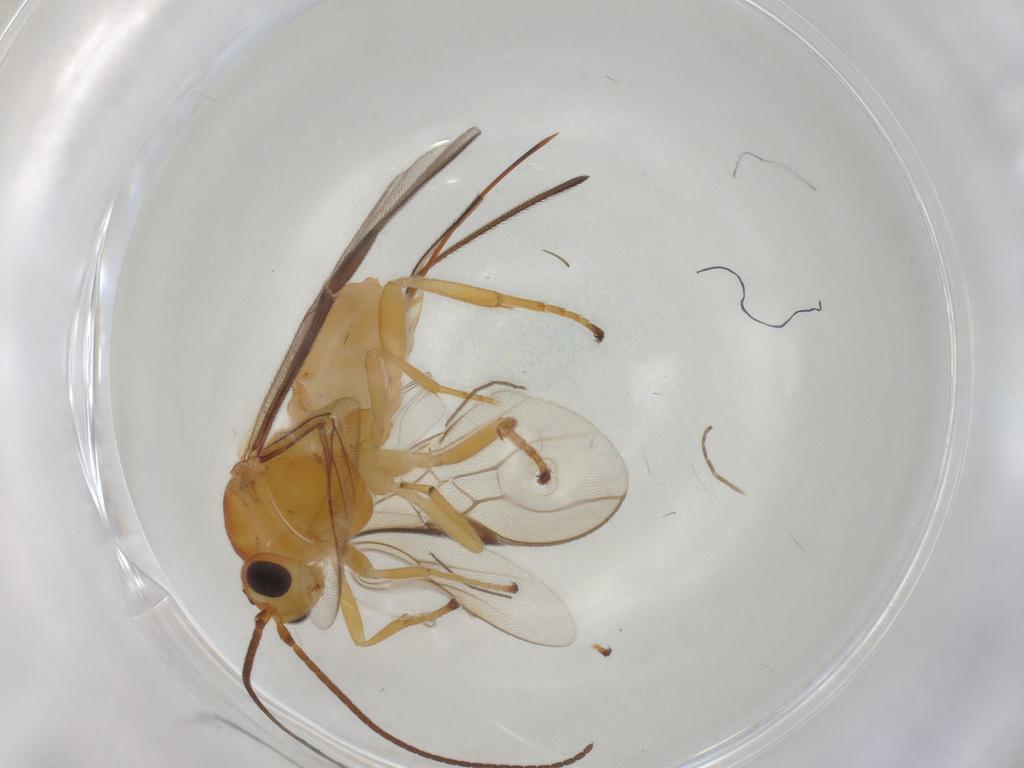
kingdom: Animalia
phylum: Arthropoda
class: Insecta
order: Hymenoptera
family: Braconidae
